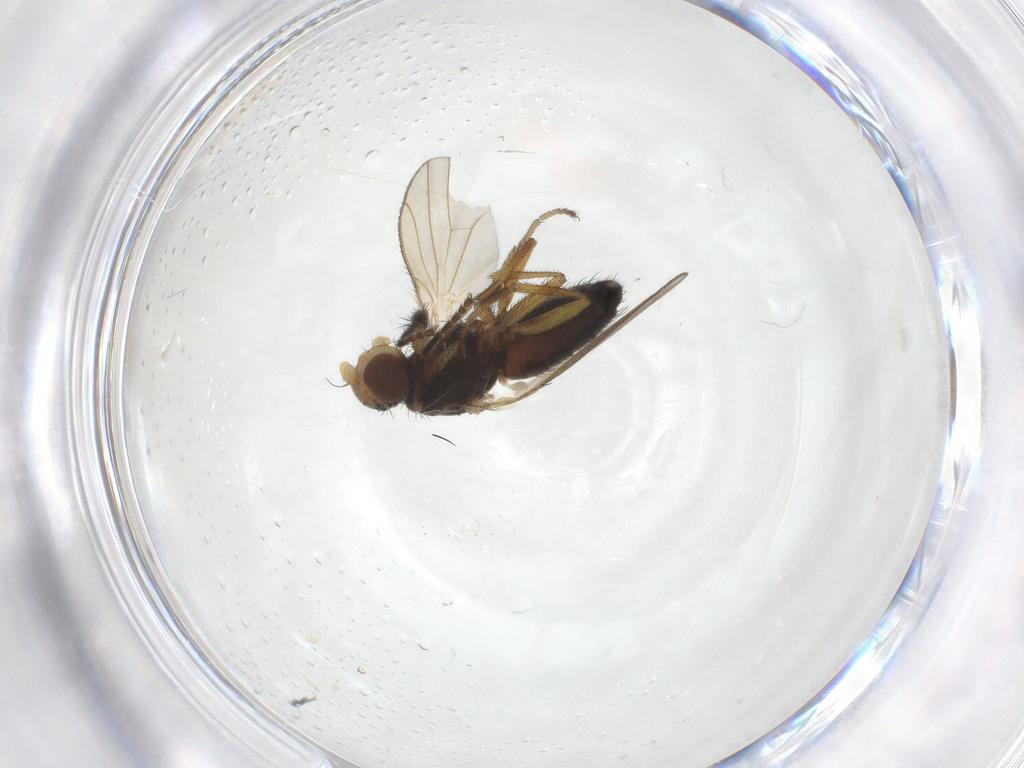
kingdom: Animalia
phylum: Arthropoda
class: Insecta
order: Diptera
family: Heleomyzidae
